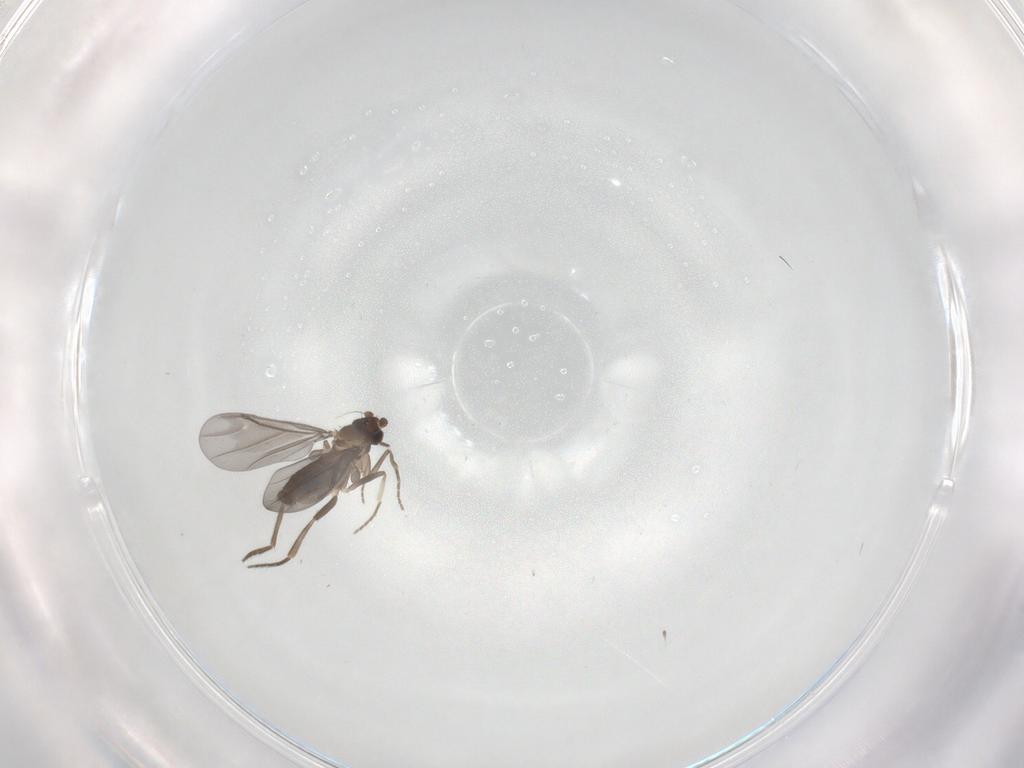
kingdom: Animalia
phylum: Arthropoda
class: Insecta
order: Diptera
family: Phoridae
